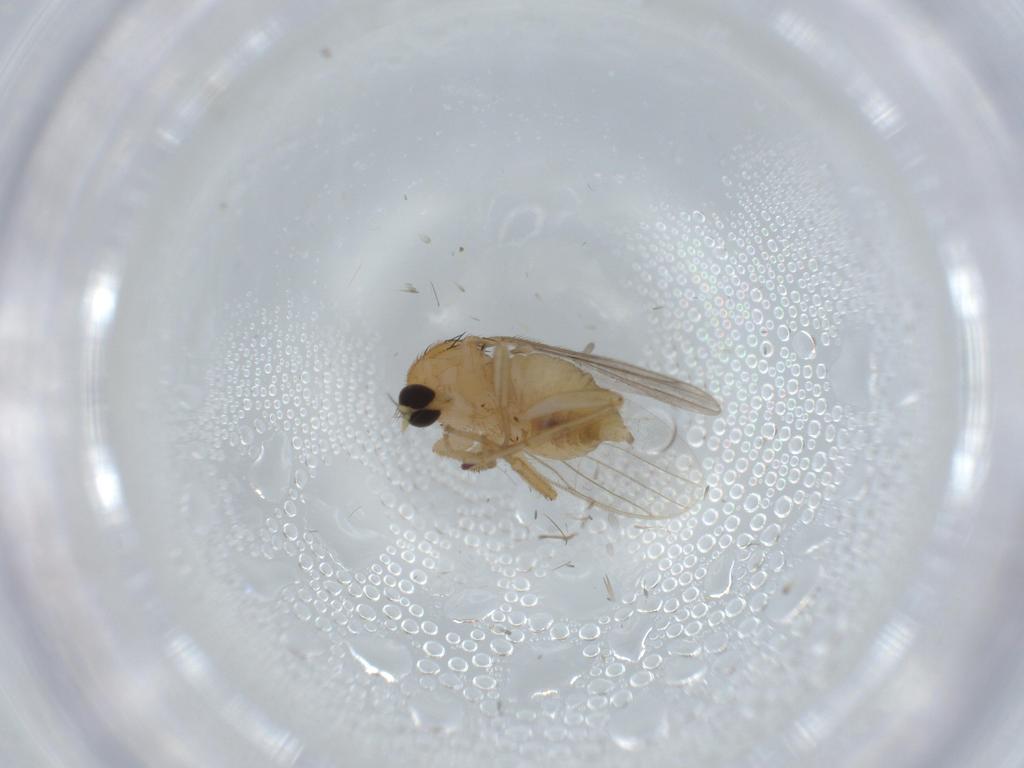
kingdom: Animalia
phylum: Arthropoda
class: Insecta
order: Diptera
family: Hybotidae
